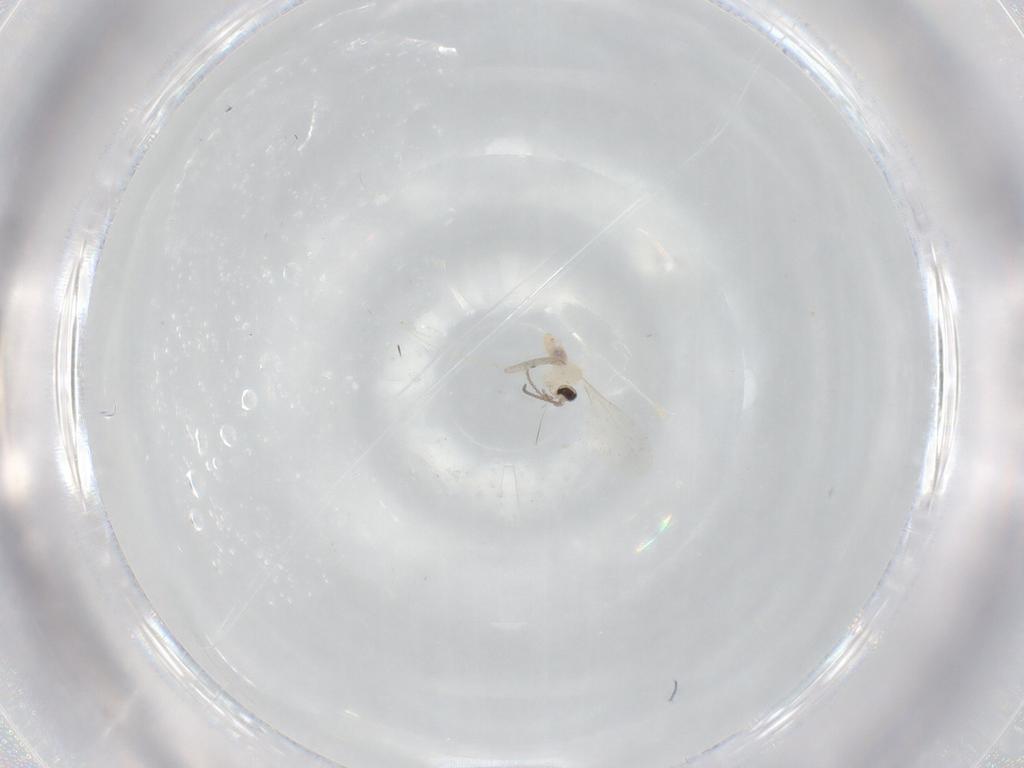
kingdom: Animalia
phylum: Arthropoda
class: Insecta
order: Diptera
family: Cecidomyiidae
